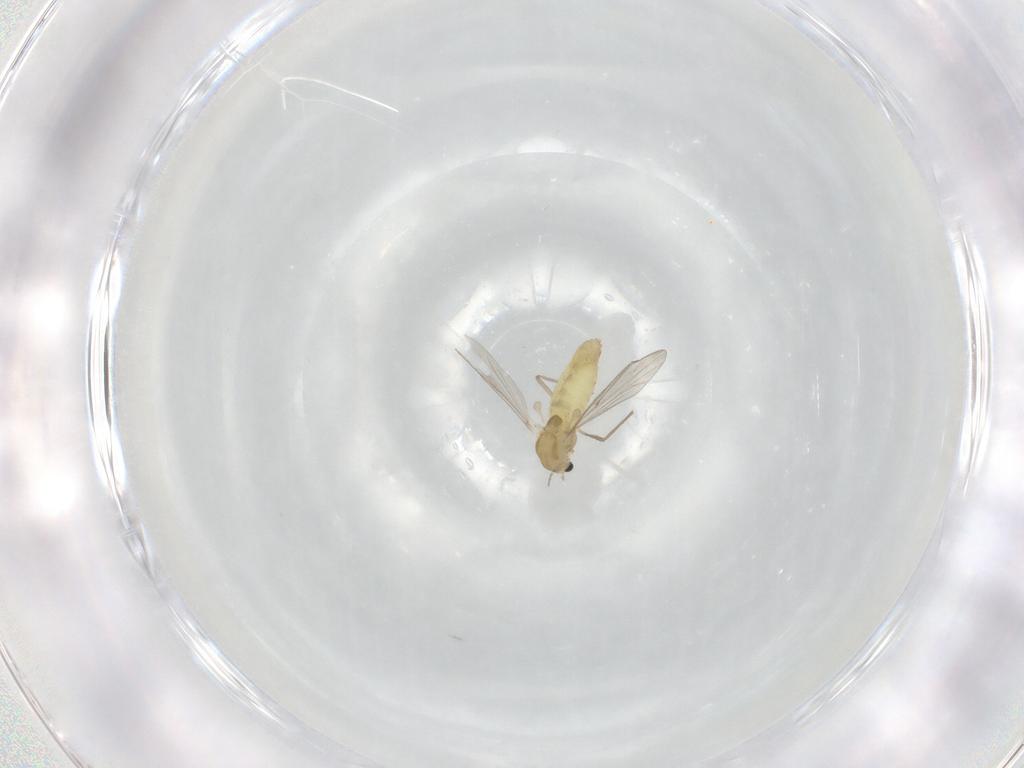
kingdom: Animalia
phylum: Arthropoda
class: Insecta
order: Diptera
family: Chironomidae
